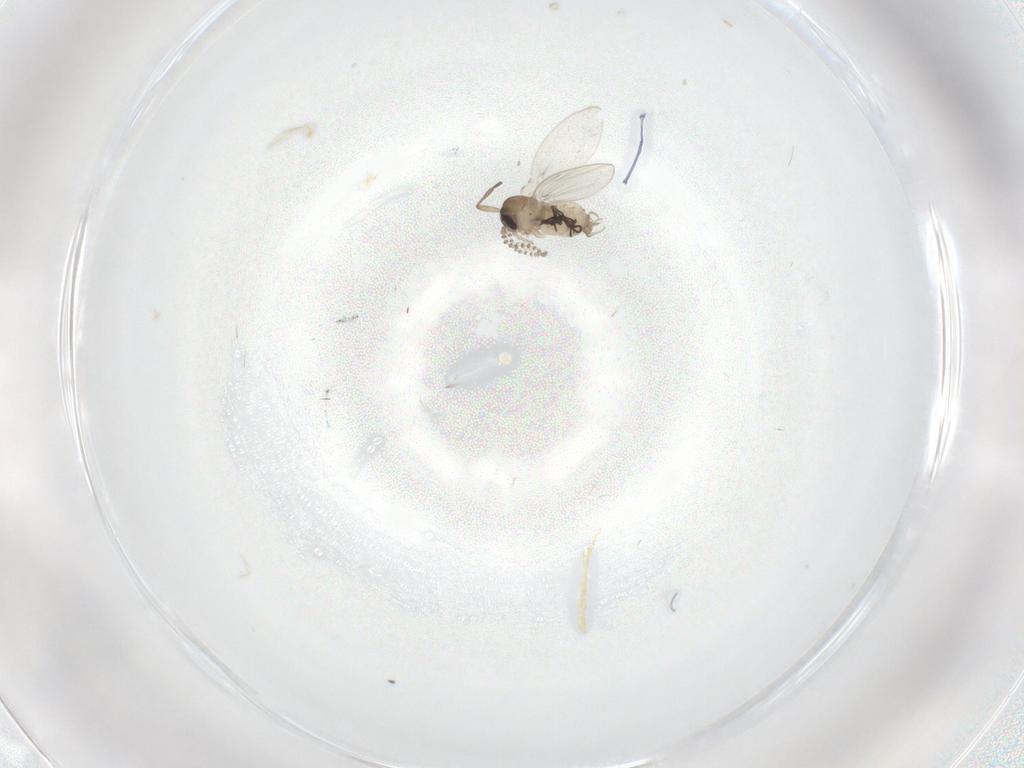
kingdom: Animalia
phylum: Arthropoda
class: Insecta
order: Diptera
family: Sciaridae
